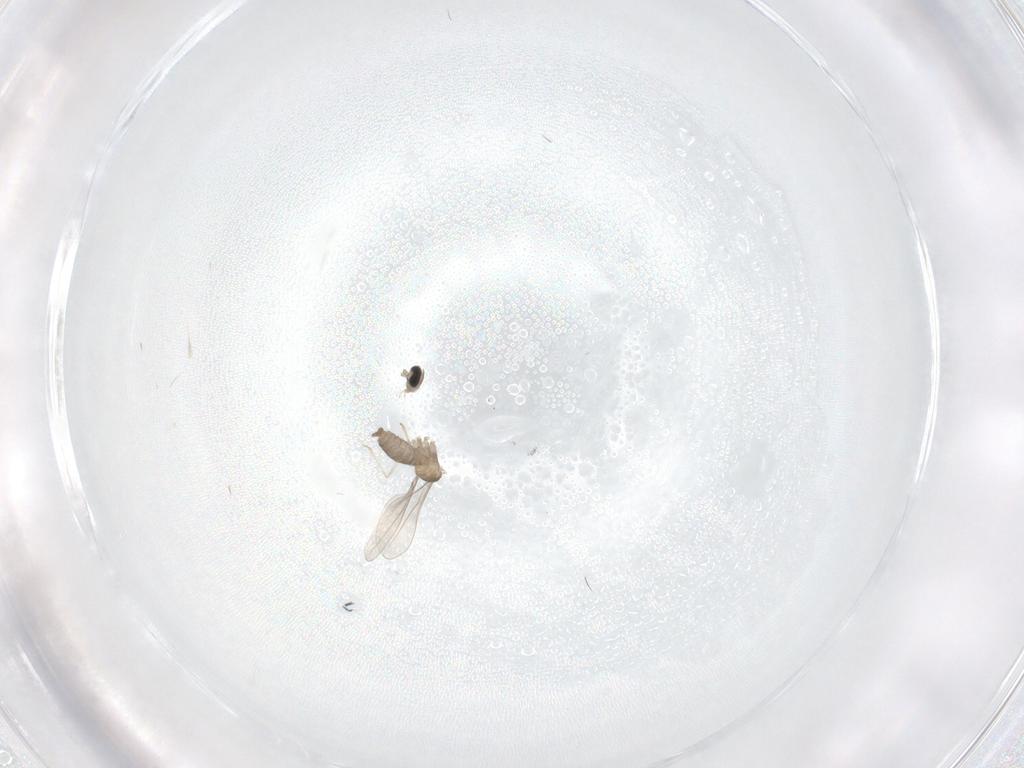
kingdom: Animalia
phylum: Arthropoda
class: Insecta
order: Diptera
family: Cecidomyiidae
